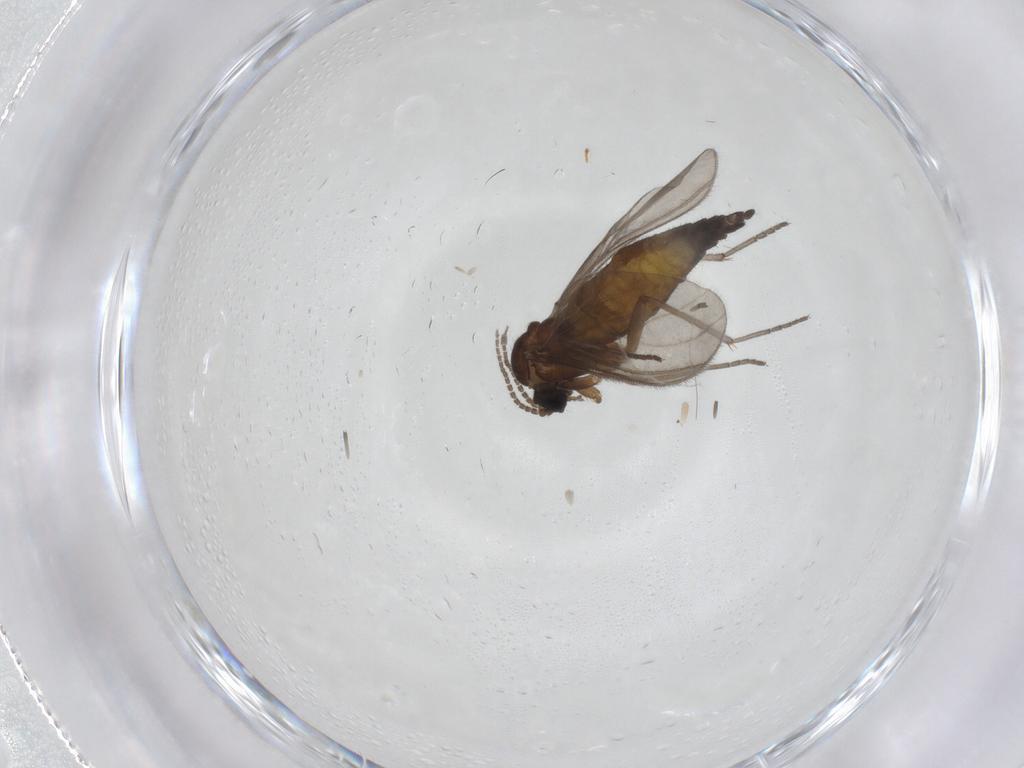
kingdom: Animalia
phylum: Arthropoda
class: Insecta
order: Diptera
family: Sciaridae
